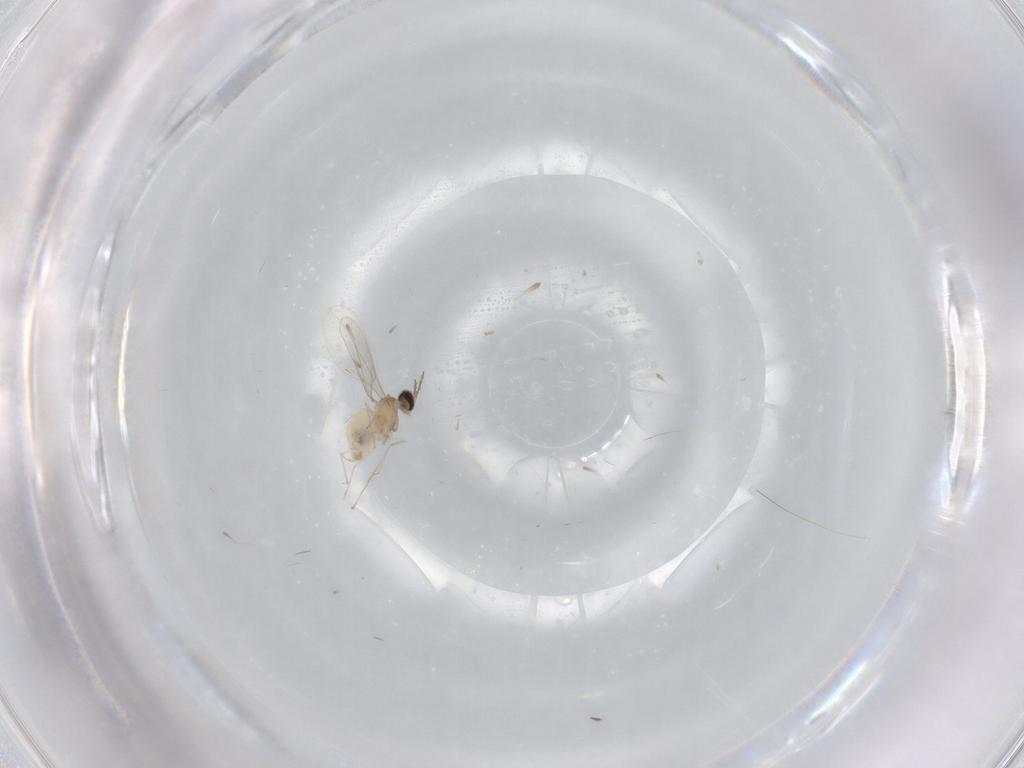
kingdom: Animalia
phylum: Arthropoda
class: Insecta
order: Diptera
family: Cecidomyiidae
